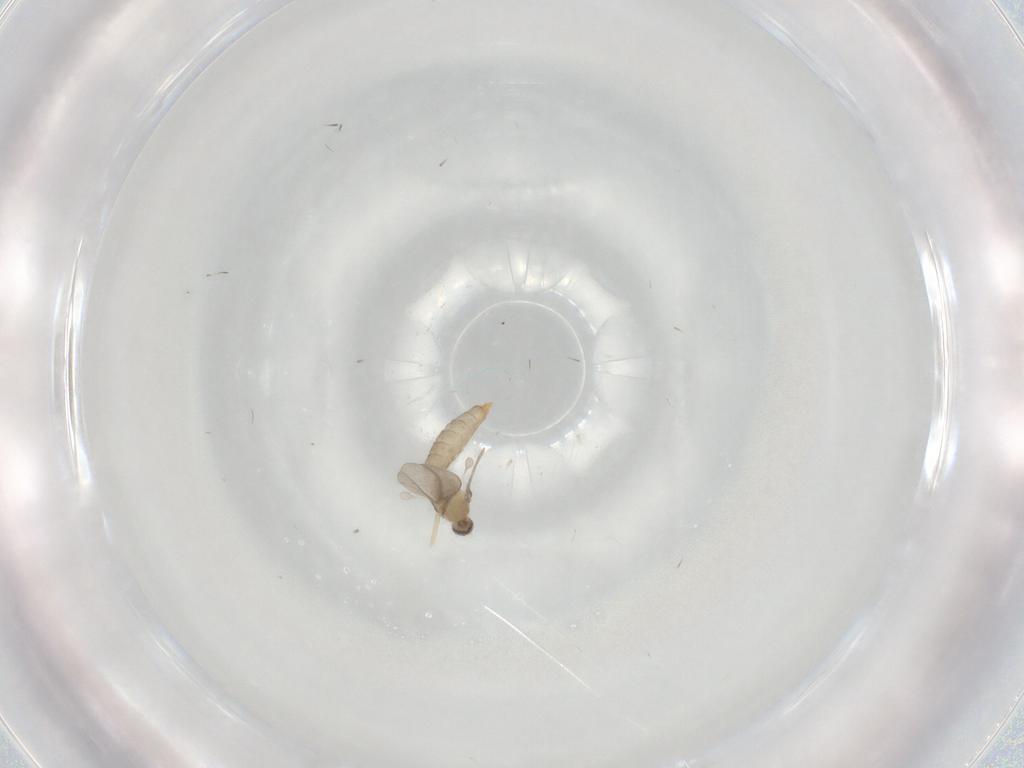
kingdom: Animalia
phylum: Arthropoda
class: Insecta
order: Diptera
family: Cecidomyiidae
